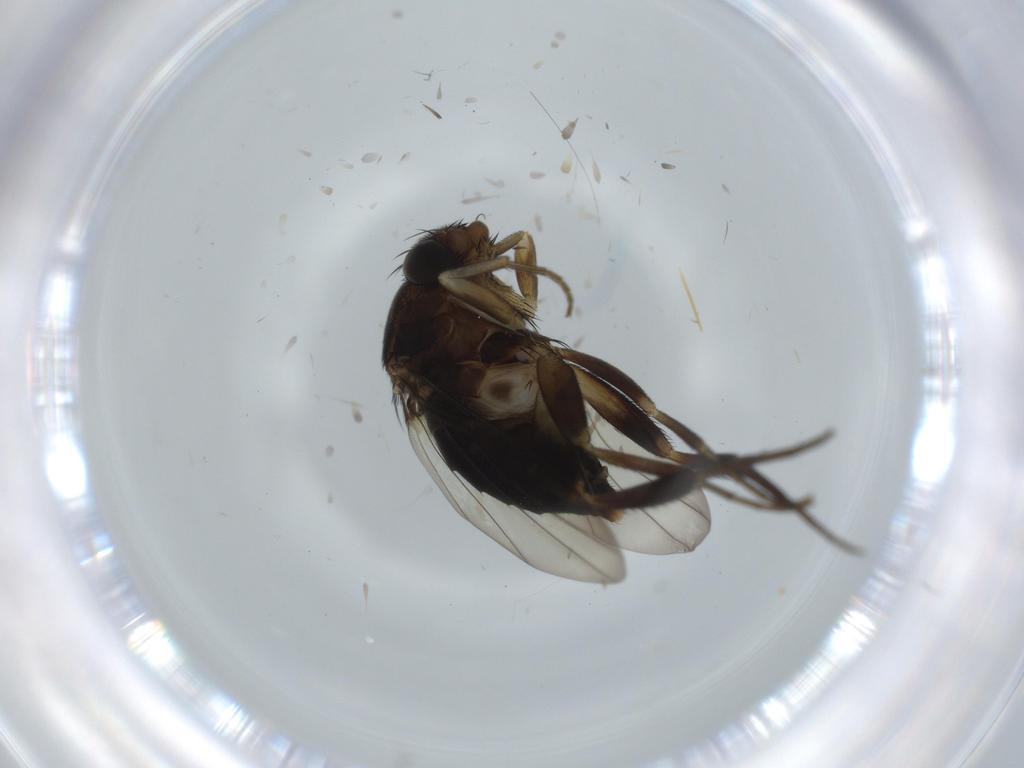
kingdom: Animalia
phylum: Arthropoda
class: Insecta
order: Diptera
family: Phoridae
